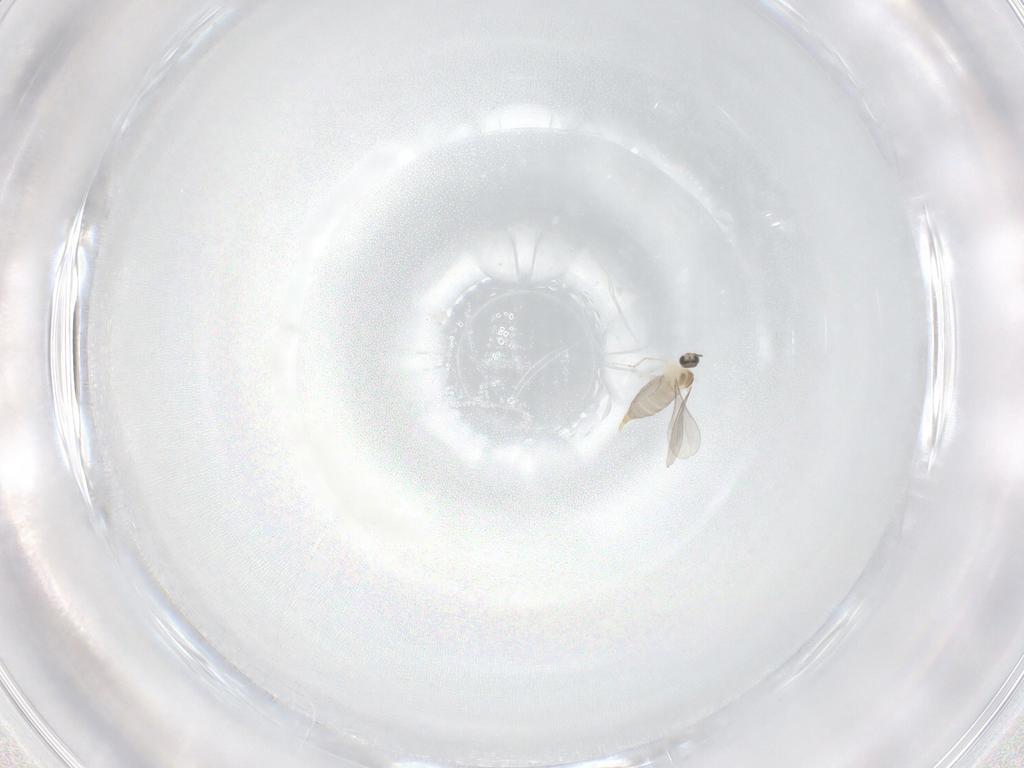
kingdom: Animalia
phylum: Arthropoda
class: Insecta
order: Diptera
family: Cecidomyiidae
